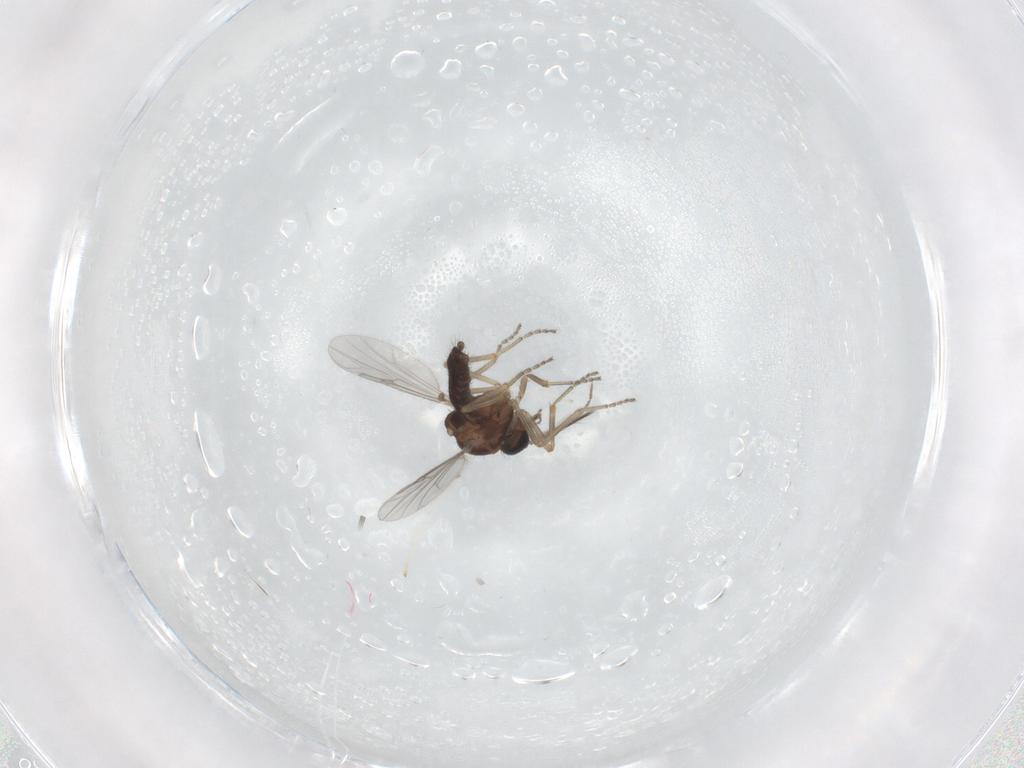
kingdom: Animalia
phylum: Arthropoda
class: Insecta
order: Diptera
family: Ceratopogonidae
